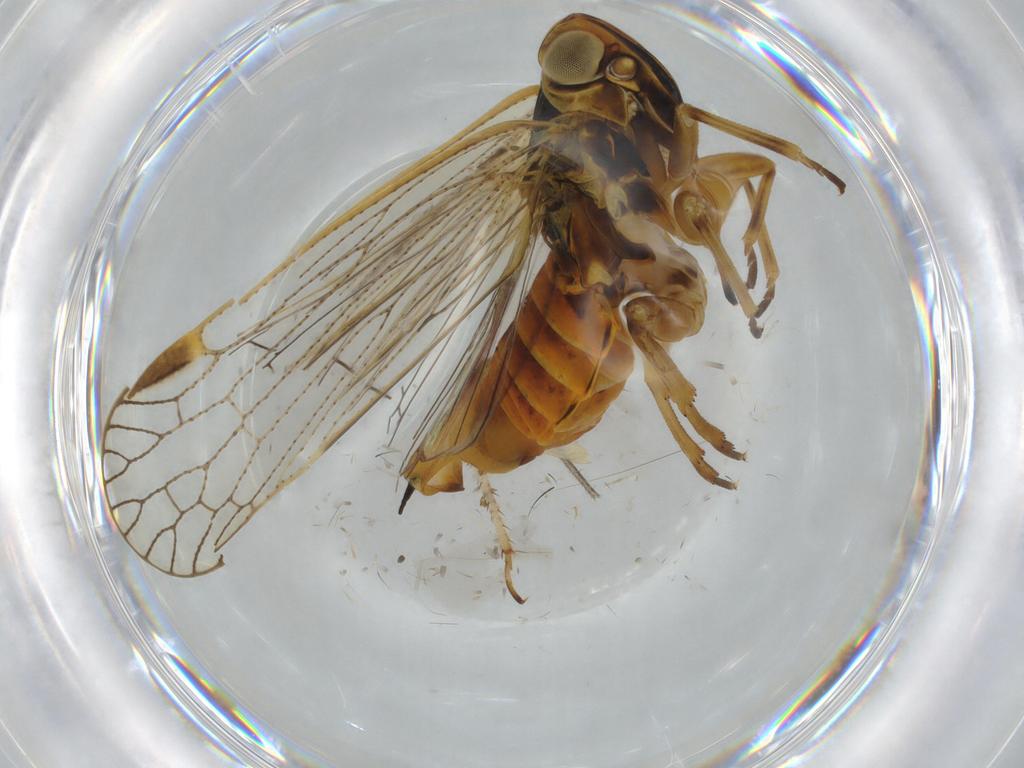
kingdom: Animalia
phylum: Arthropoda
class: Insecta
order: Hemiptera
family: Cixiidae
